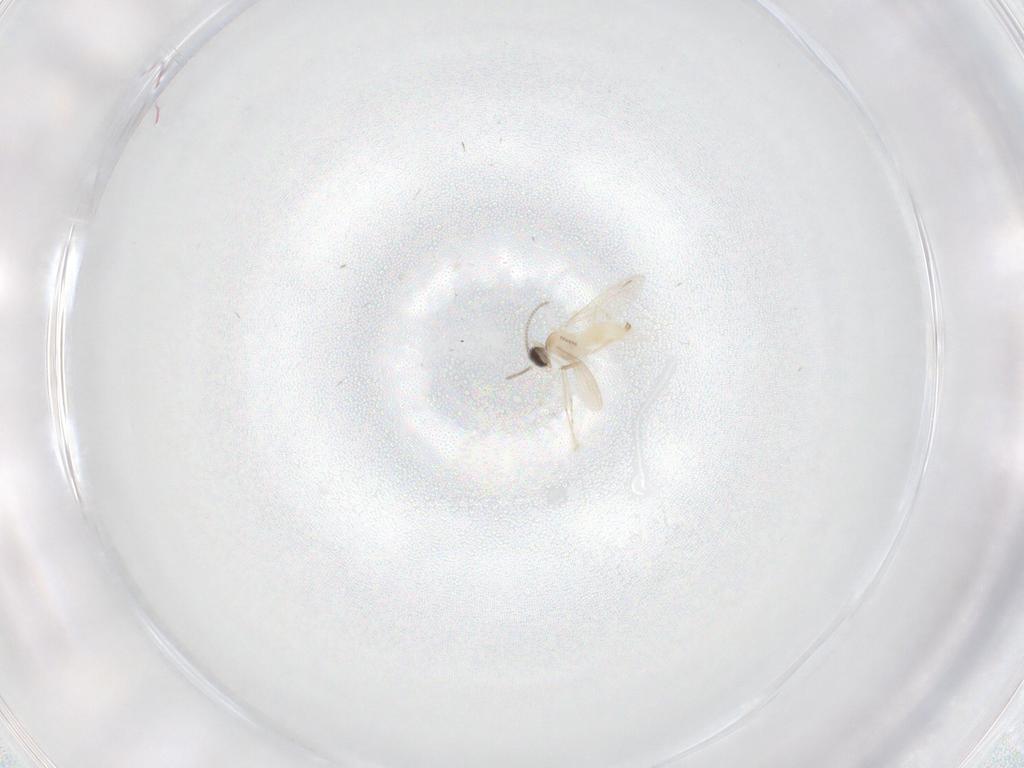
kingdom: Animalia
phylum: Arthropoda
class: Insecta
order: Diptera
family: Cecidomyiidae
